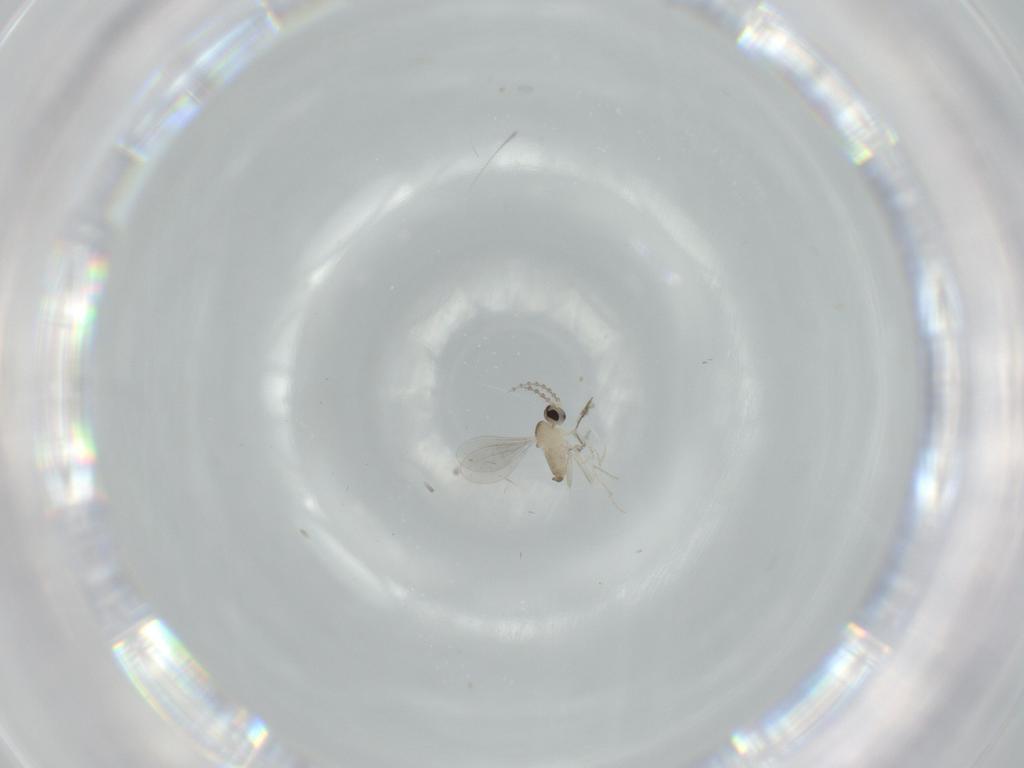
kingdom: Animalia
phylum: Arthropoda
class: Insecta
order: Diptera
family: Cecidomyiidae
